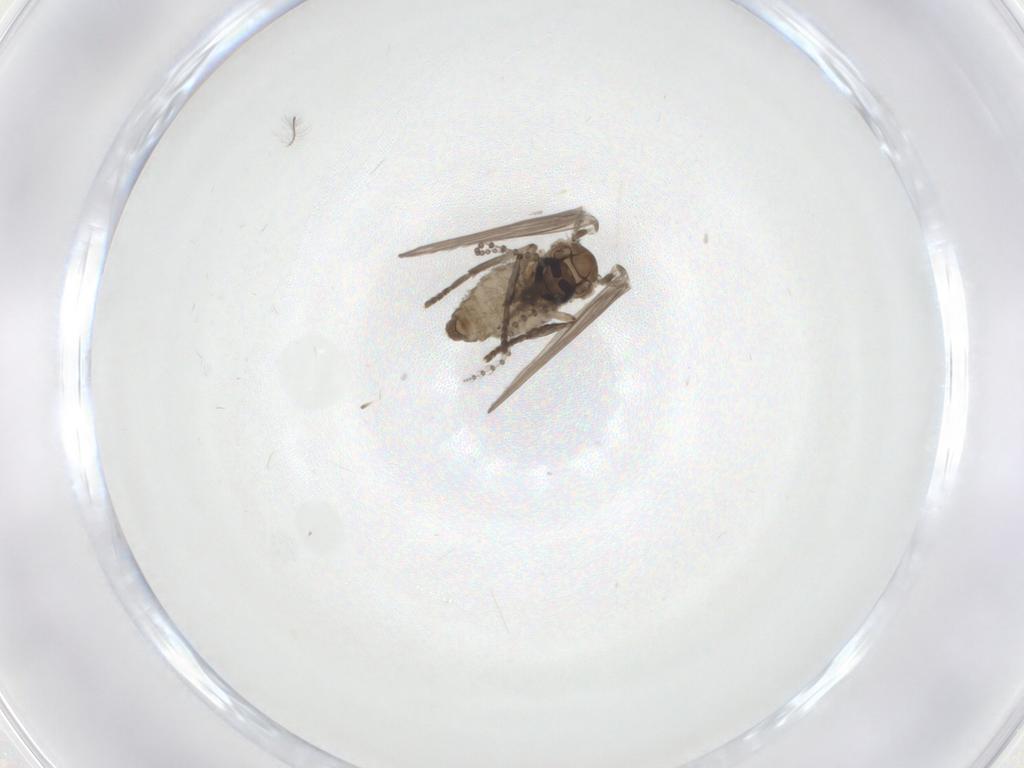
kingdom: Animalia
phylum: Arthropoda
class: Insecta
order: Diptera
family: Psychodidae
